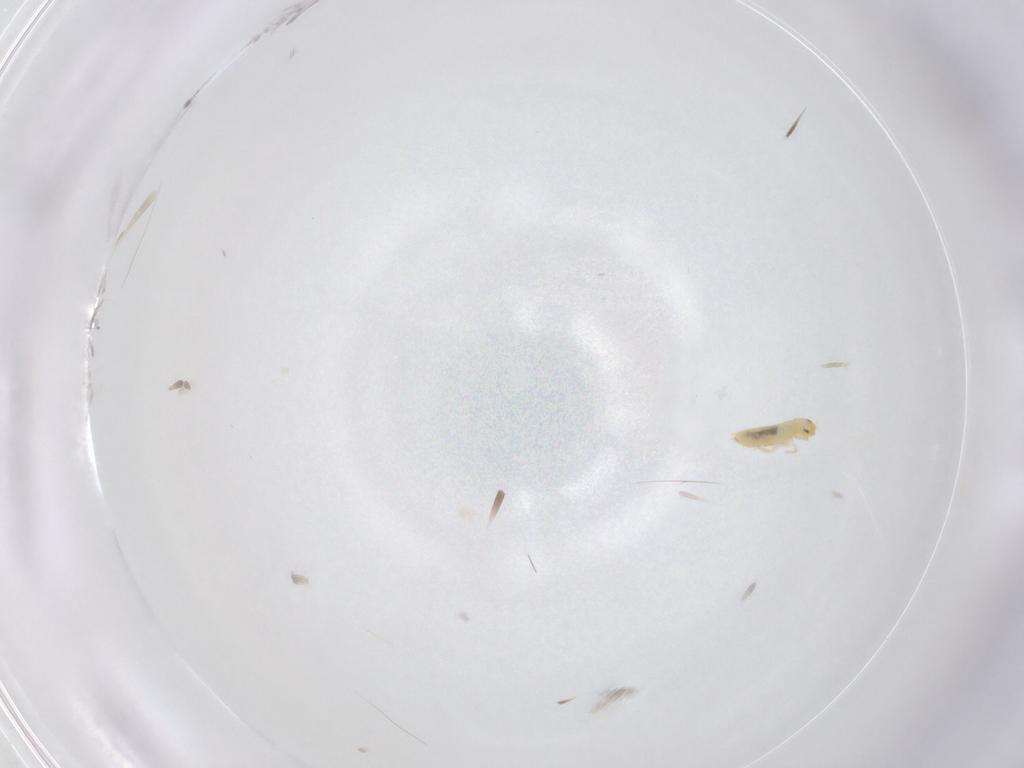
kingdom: Animalia
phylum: Arthropoda
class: Collembola
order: Entomobryomorpha
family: Entomobryidae
